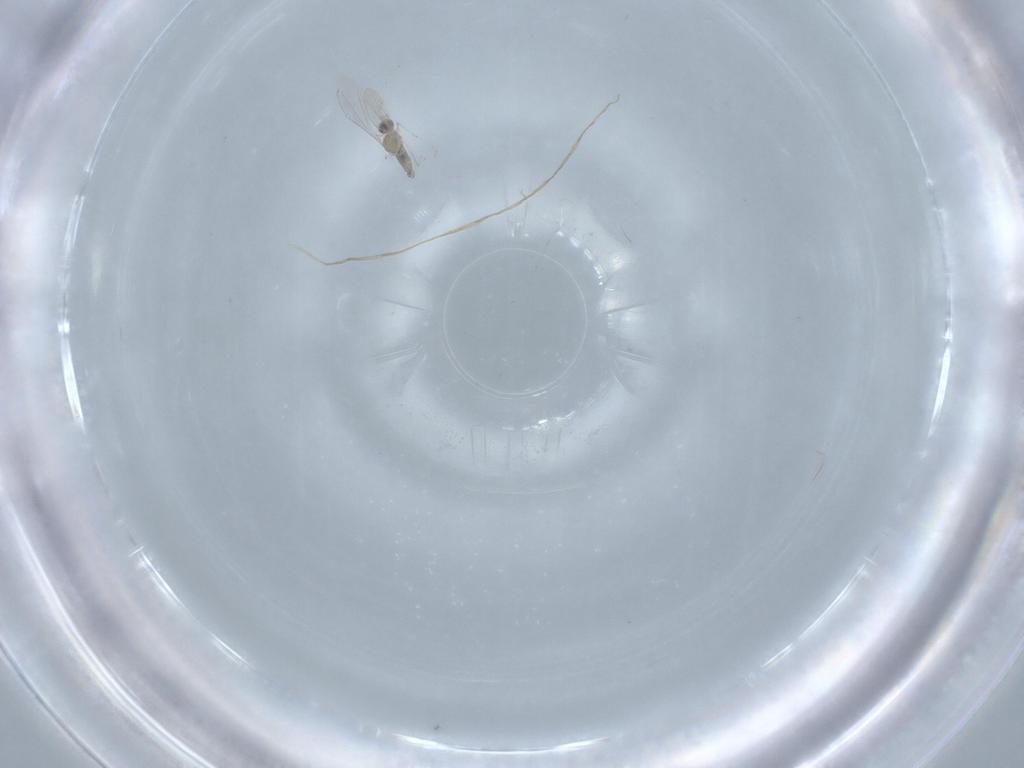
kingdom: Animalia
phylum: Arthropoda
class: Insecta
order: Diptera
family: Cecidomyiidae
